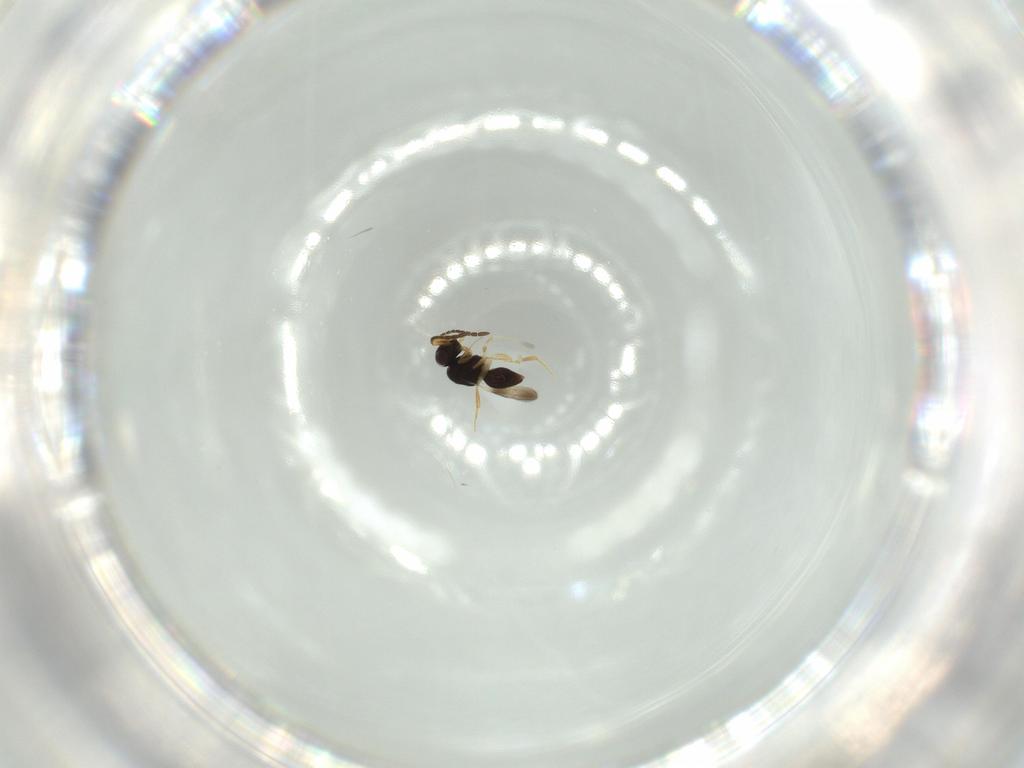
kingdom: Animalia
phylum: Arthropoda
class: Insecta
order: Hymenoptera
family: Ceraphronidae
